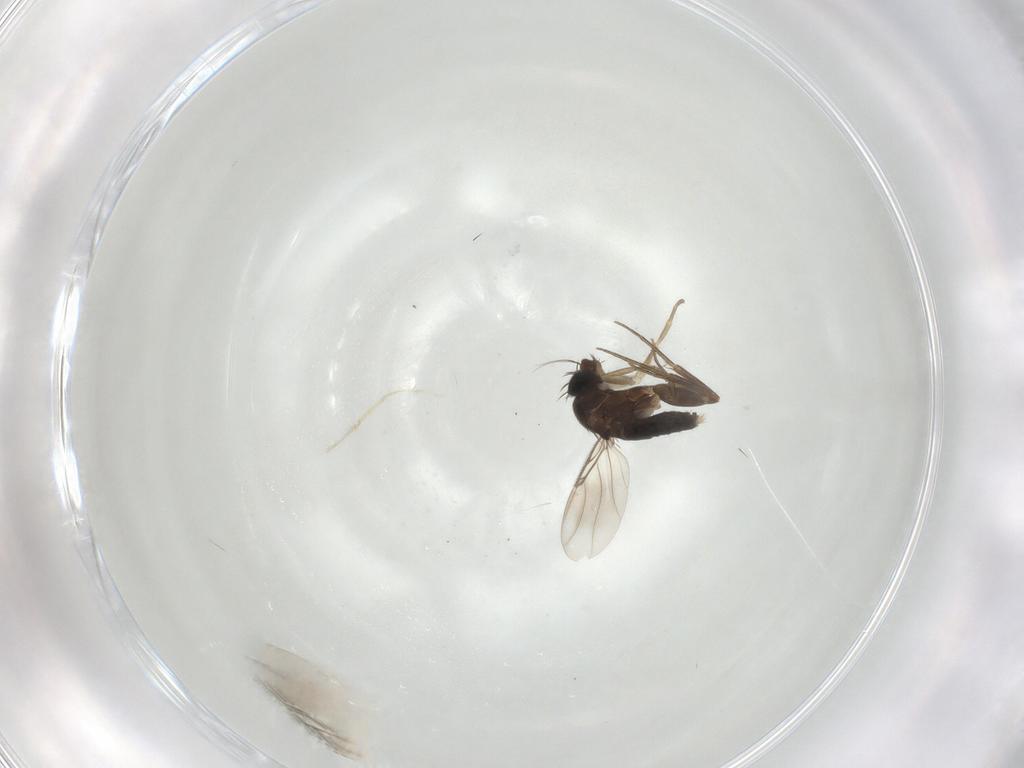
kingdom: Animalia
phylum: Arthropoda
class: Insecta
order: Diptera
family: Phoridae
